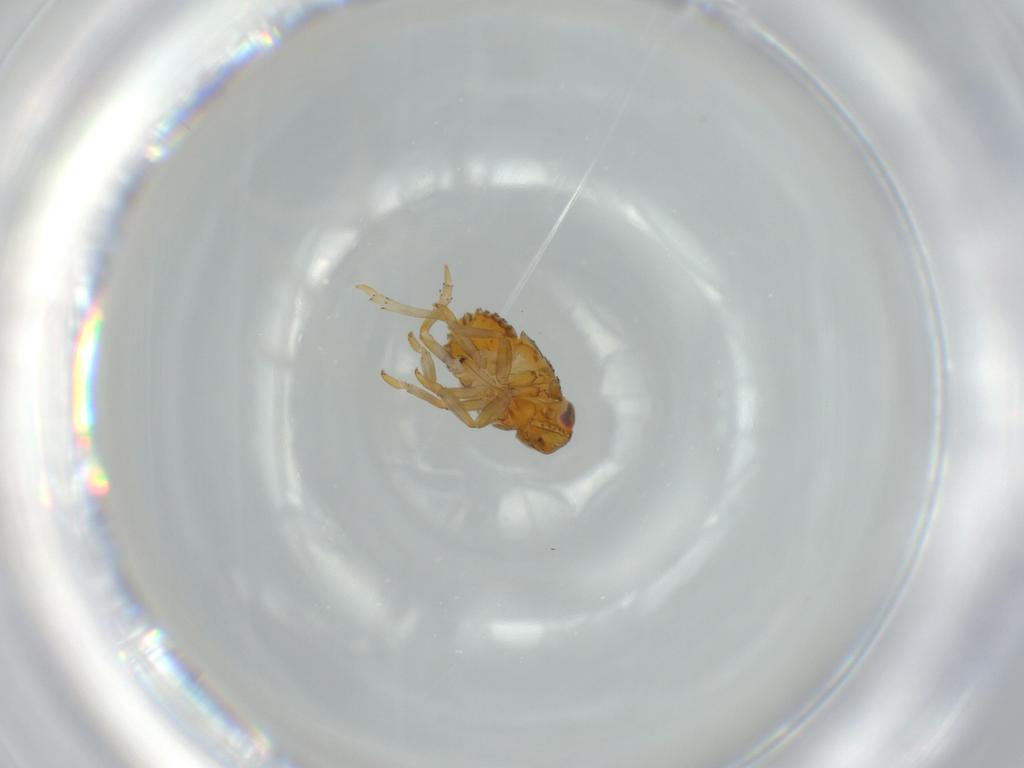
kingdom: Animalia
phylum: Arthropoda
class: Insecta
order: Hemiptera
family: Issidae
